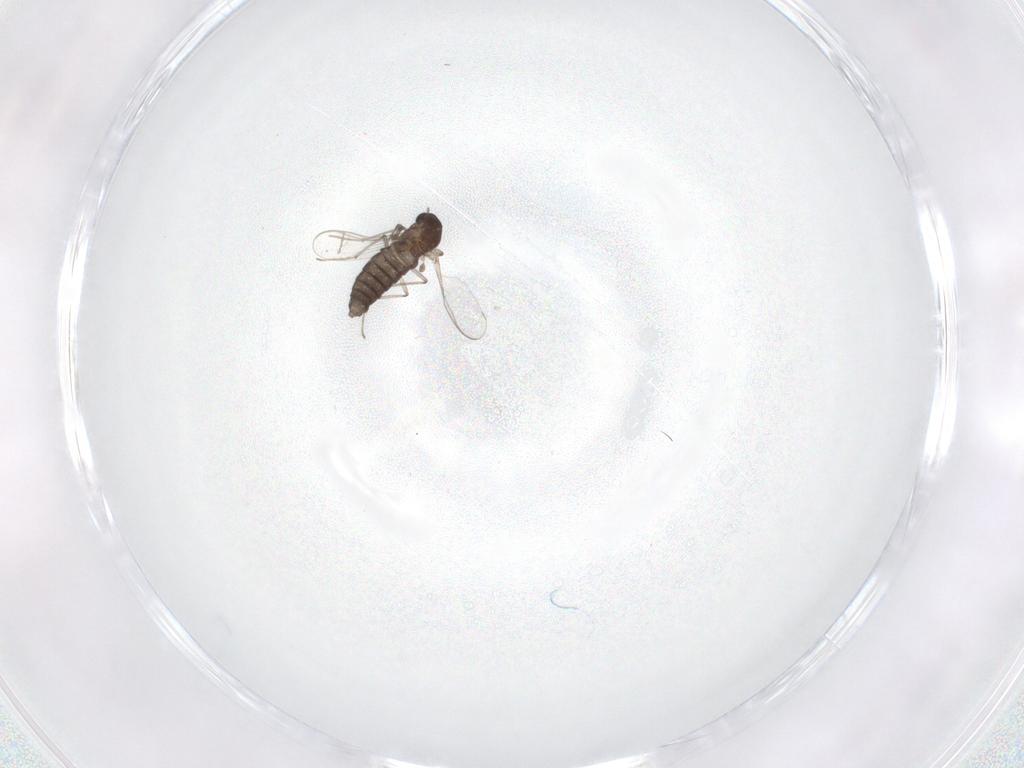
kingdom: Animalia
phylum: Arthropoda
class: Insecta
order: Diptera
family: Chironomidae
